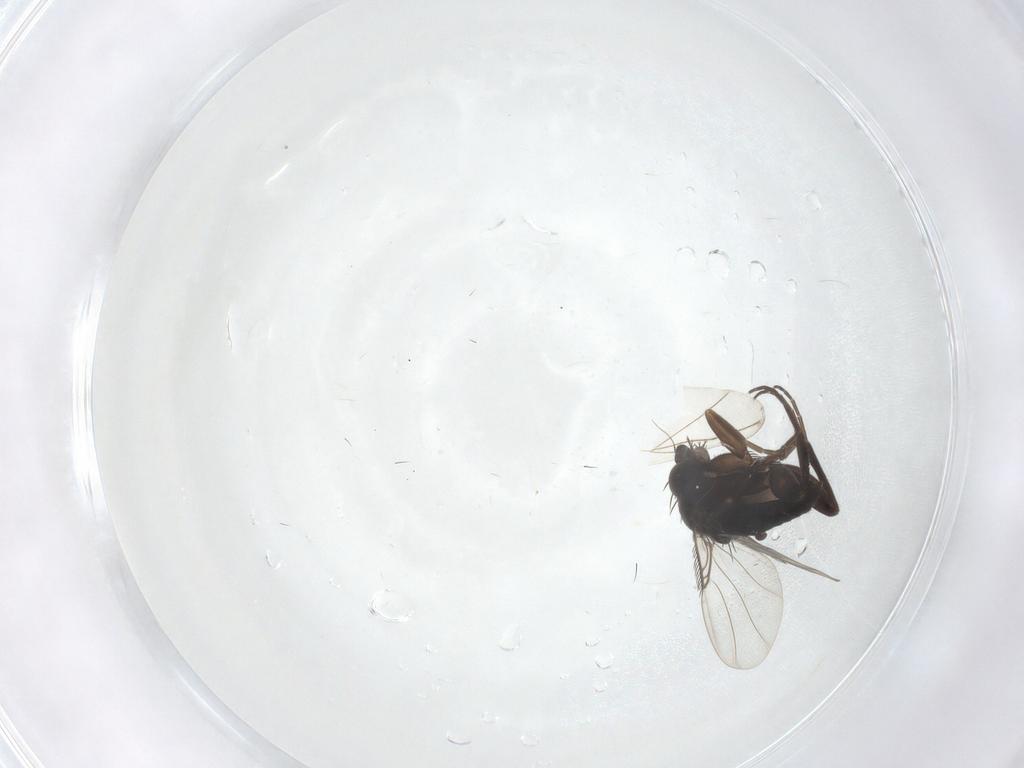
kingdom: Animalia
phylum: Arthropoda
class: Insecta
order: Diptera
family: Phoridae
